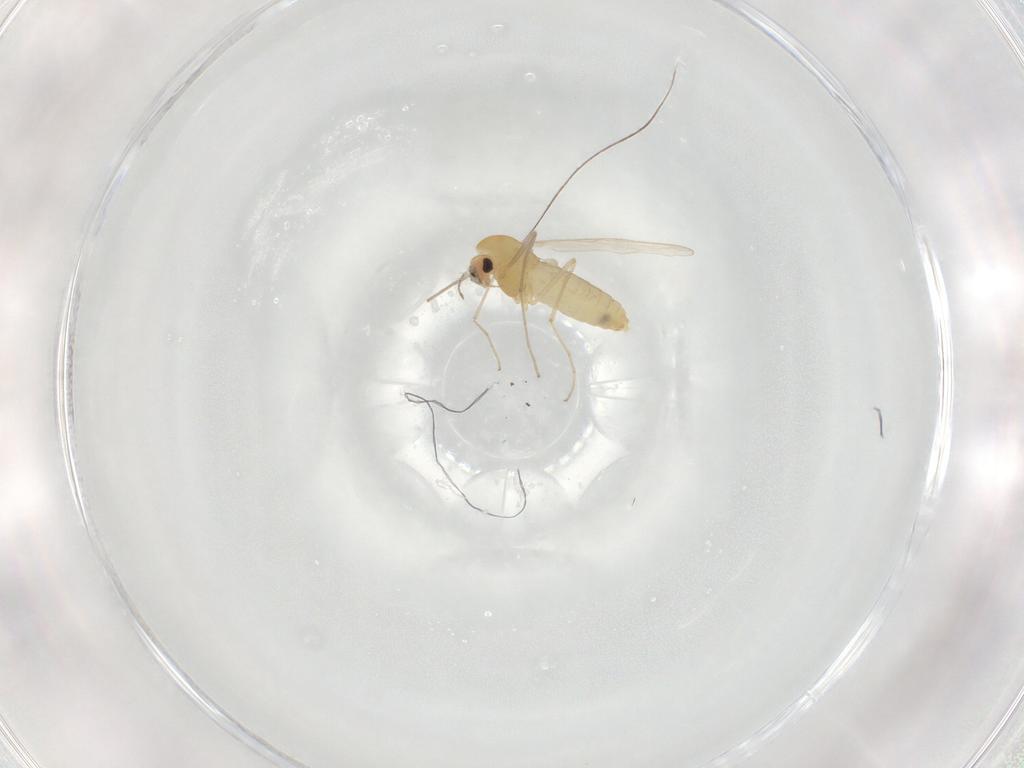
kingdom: Animalia
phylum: Arthropoda
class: Insecta
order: Diptera
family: Chironomidae
